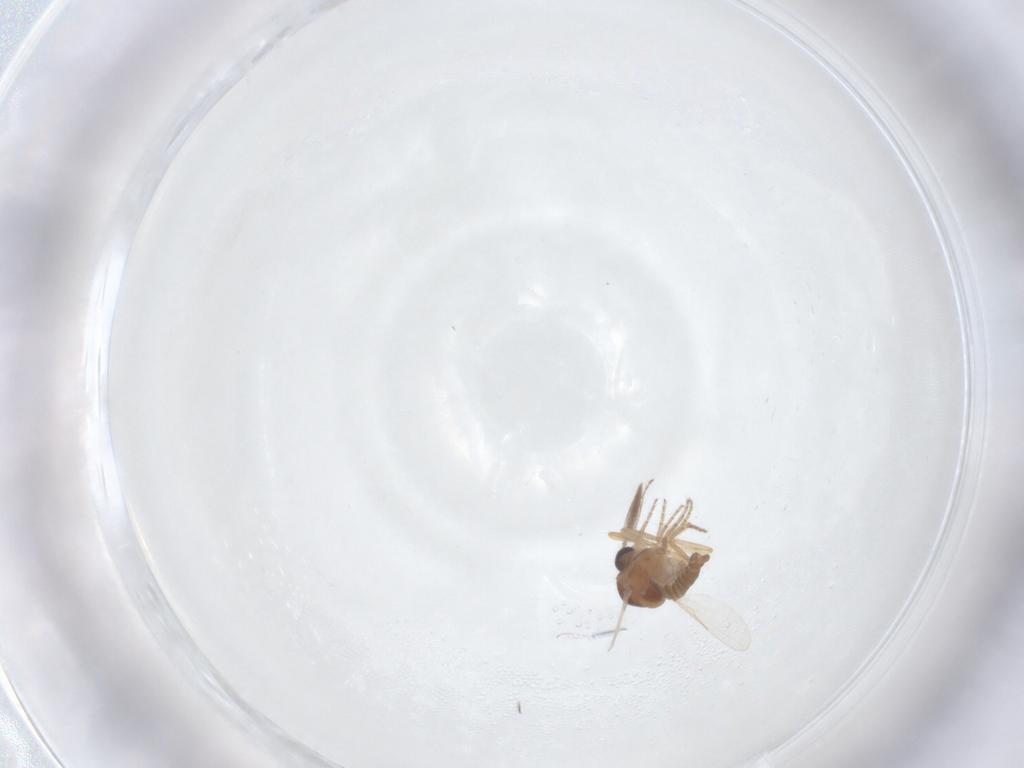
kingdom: Animalia
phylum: Arthropoda
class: Insecta
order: Diptera
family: Ceratopogonidae
